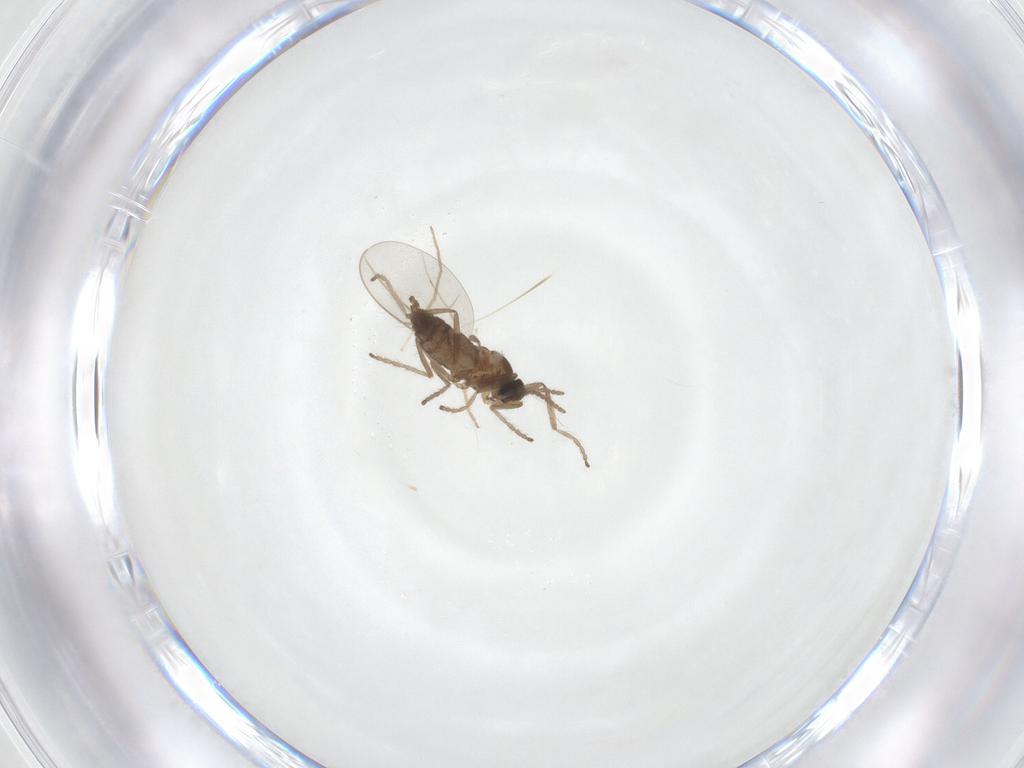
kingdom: Animalia
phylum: Arthropoda
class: Insecta
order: Diptera
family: Cecidomyiidae
